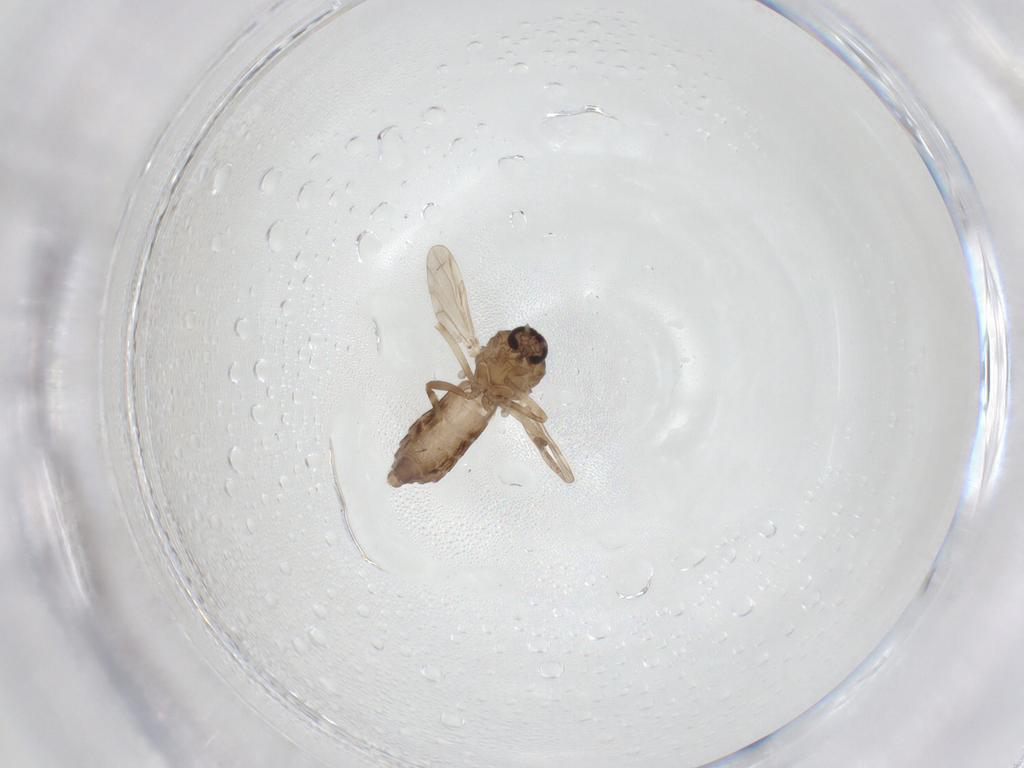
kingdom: Animalia
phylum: Arthropoda
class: Insecta
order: Diptera
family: Ceratopogonidae
